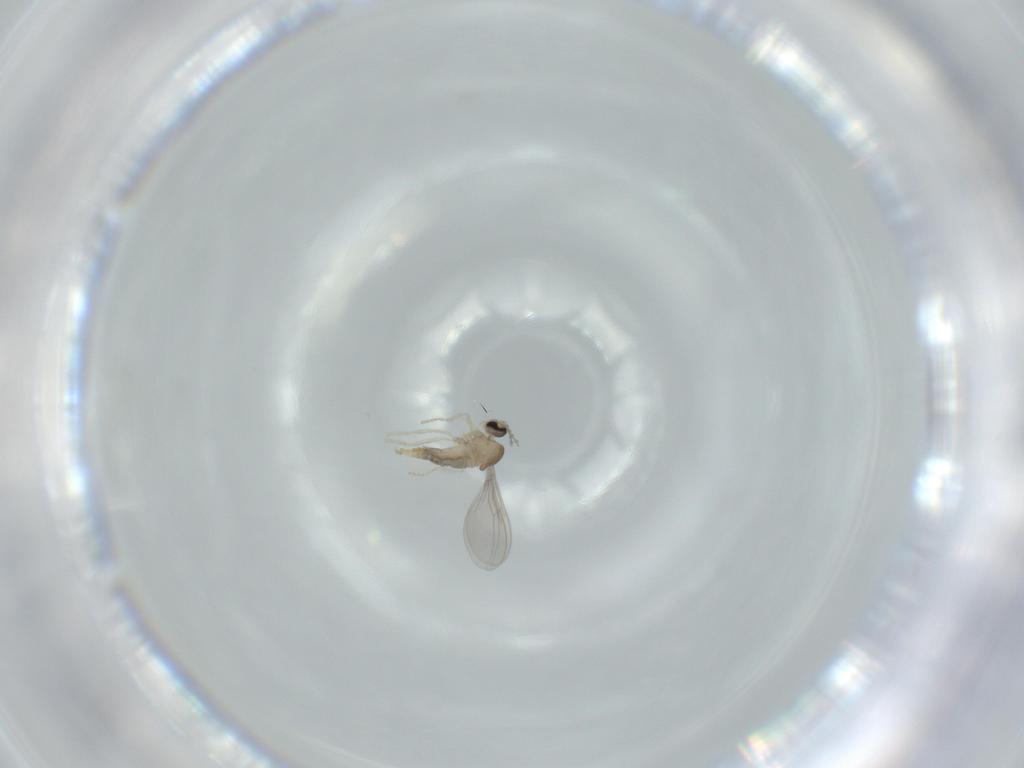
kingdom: Animalia
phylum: Arthropoda
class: Insecta
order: Diptera
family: Cecidomyiidae
